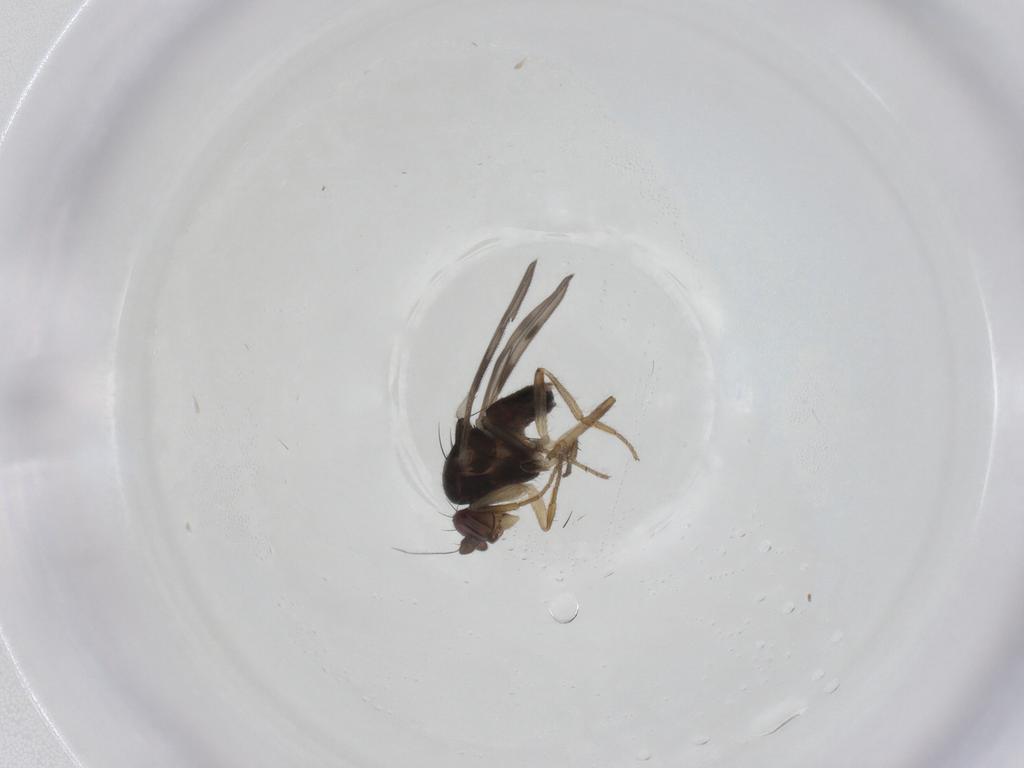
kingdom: Animalia
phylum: Arthropoda
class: Insecta
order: Diptera
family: Sphaeroceridae
